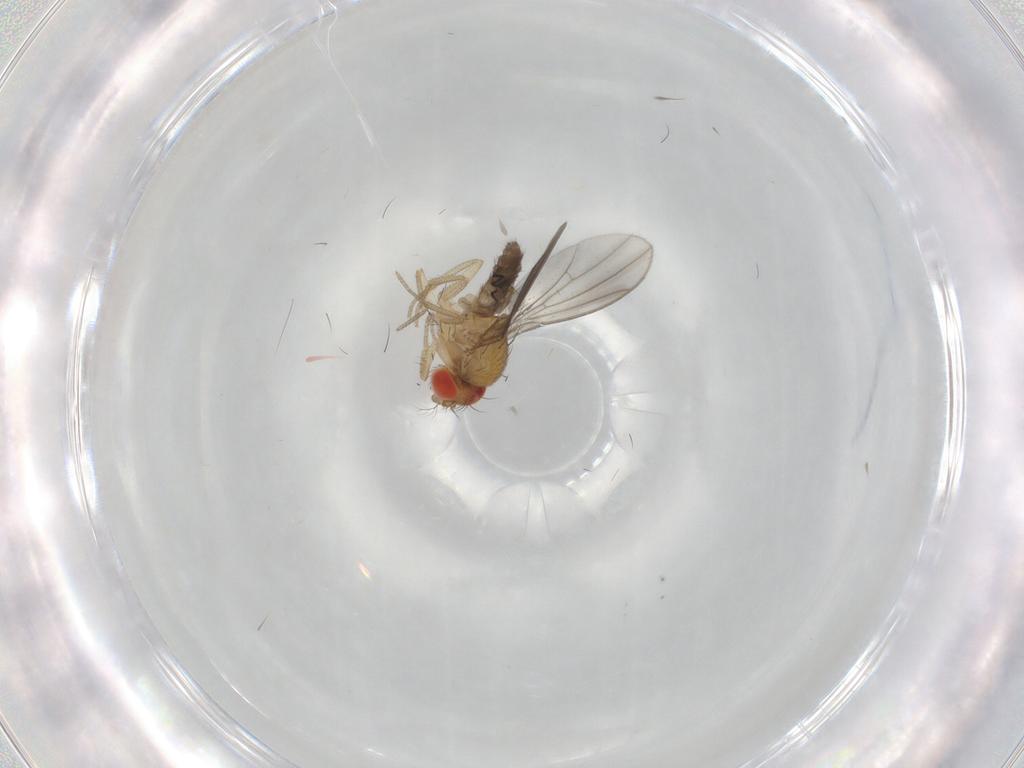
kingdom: Animalia
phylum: Arthropoda
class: Insecta
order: Diptera
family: Drosophilidae
